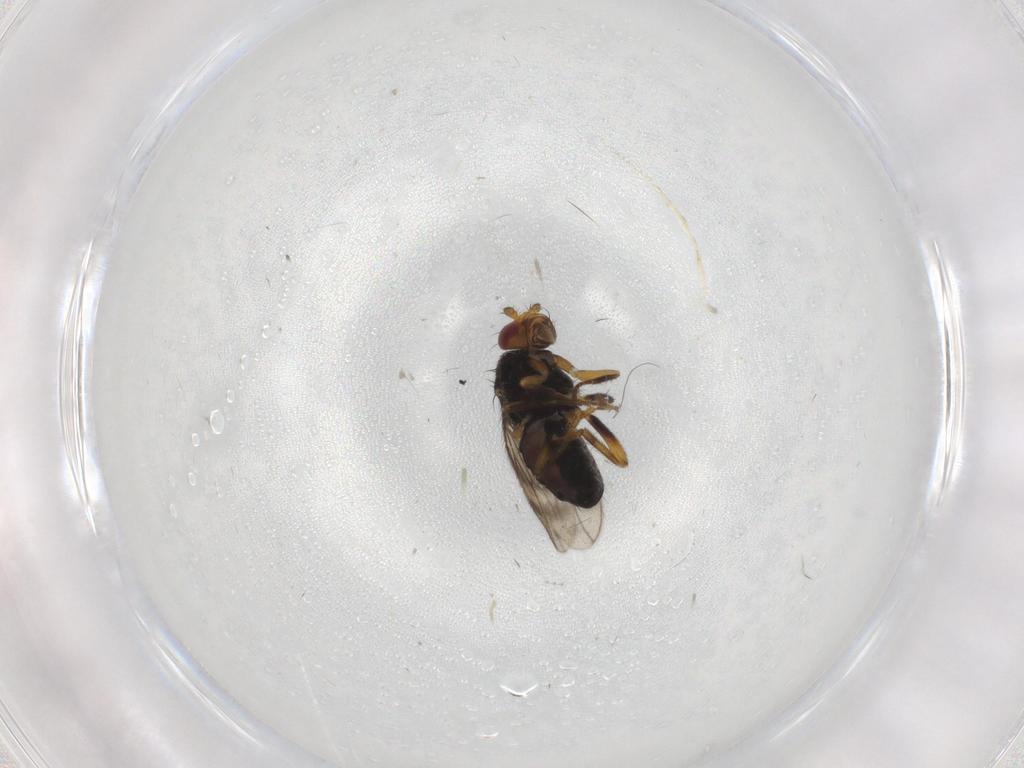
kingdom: Animalia
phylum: Arthropoda
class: Insecta
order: Diptera
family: Sphaeroceridae
